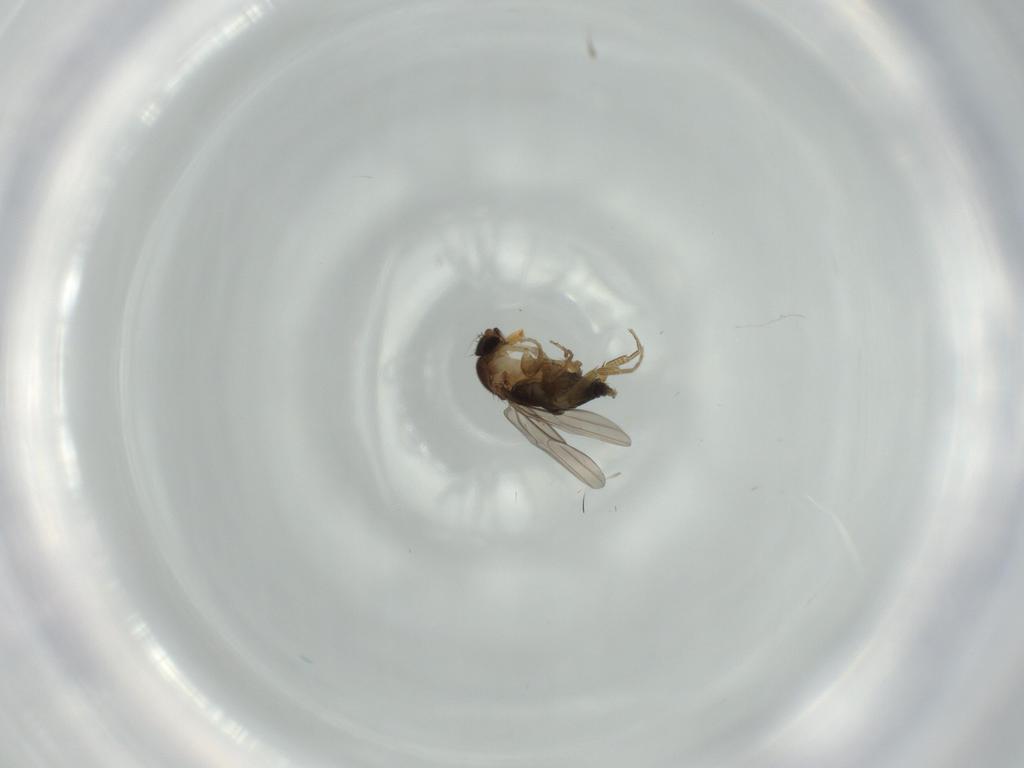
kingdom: Animalia
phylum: Arthropoda
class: Insecta
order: Diptera
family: Phoridae
